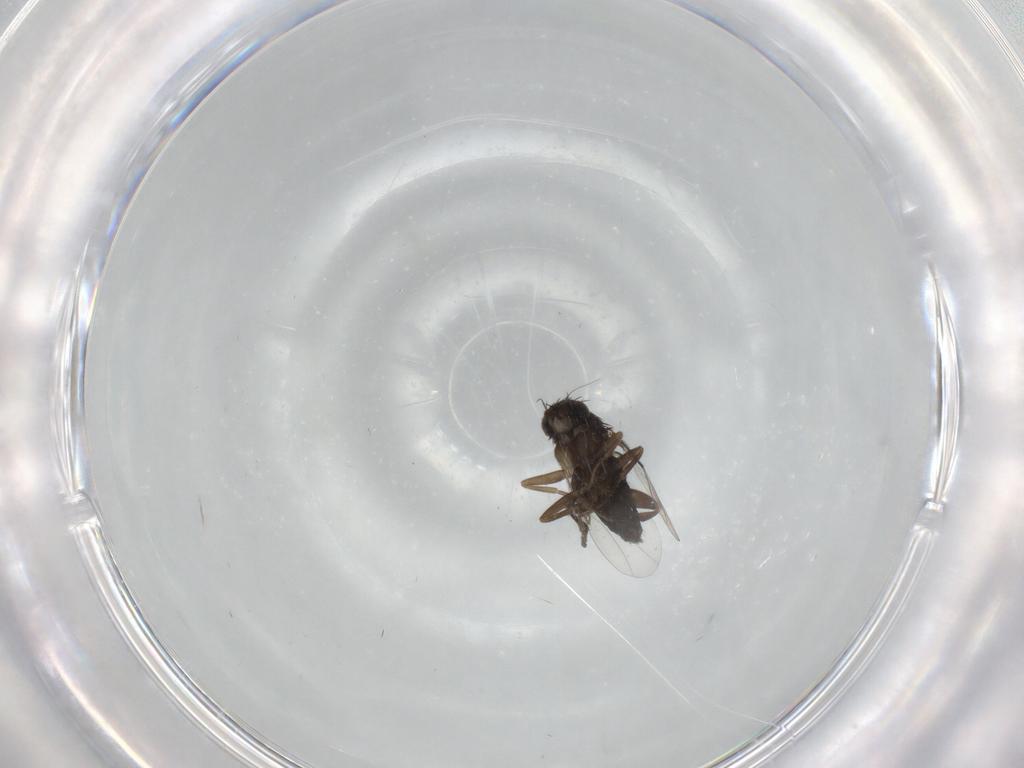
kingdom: Animalia
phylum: Arthropoda
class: Insecta
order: Diptera
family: Phoridae
